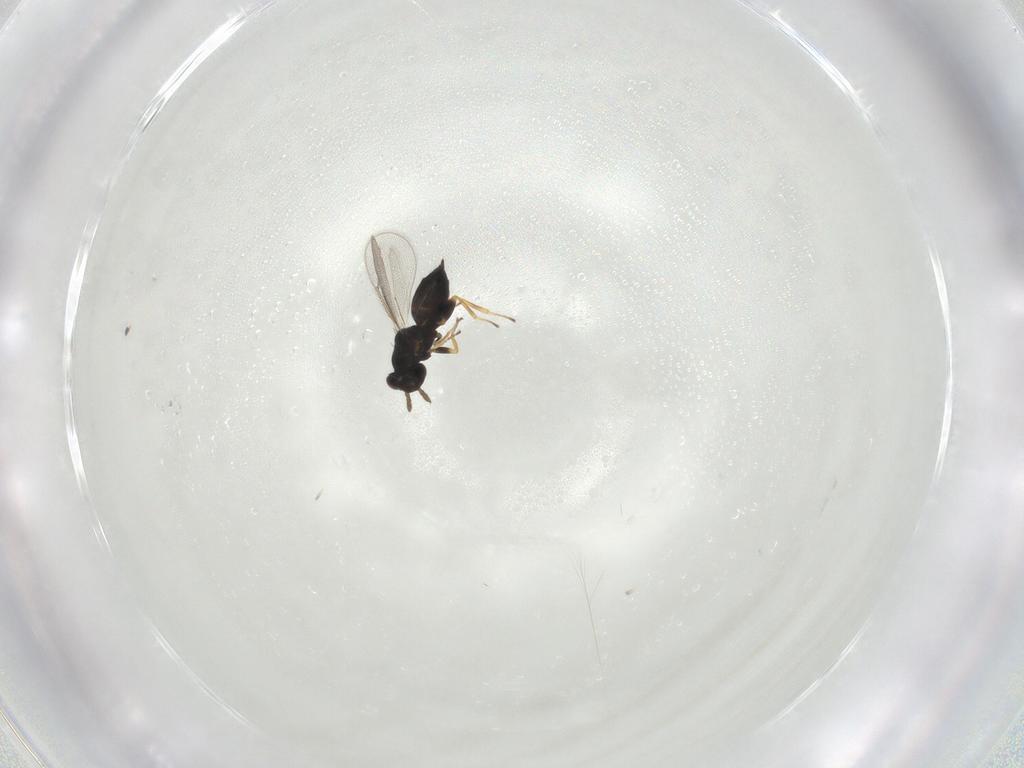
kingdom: Animalia
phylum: Arthropoda
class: Insecta
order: Hymenoptera
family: Eulophidae
